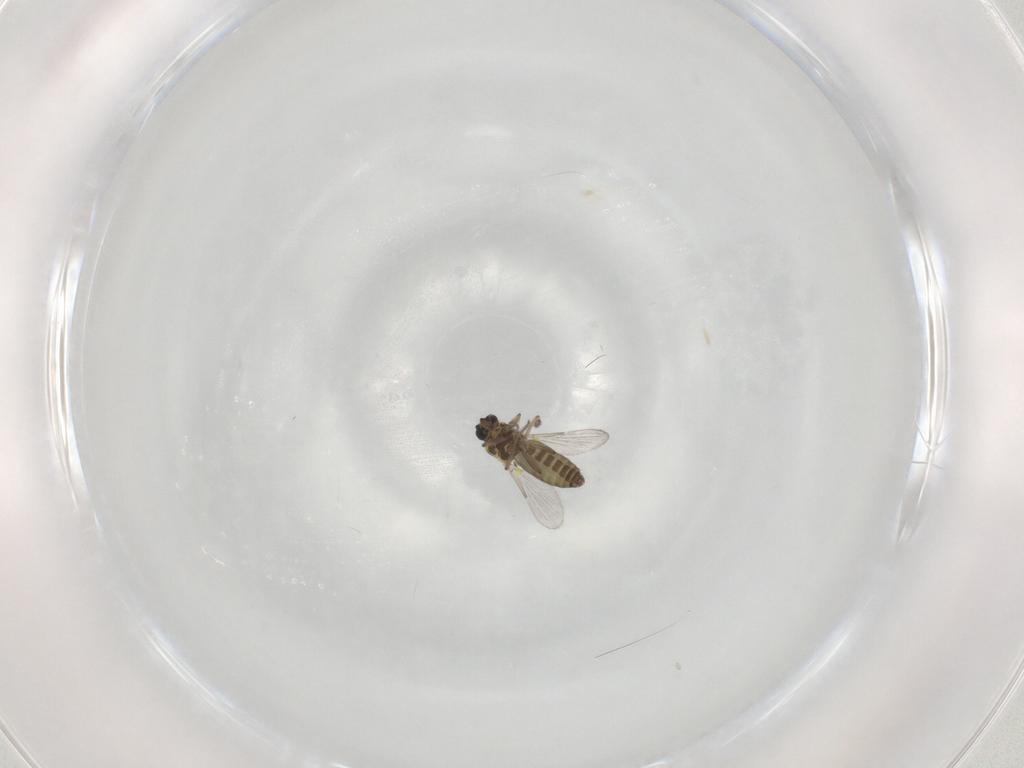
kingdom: Animalia
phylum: Arthropoda
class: Insecta
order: Diptera
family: Ceratopogonidae
